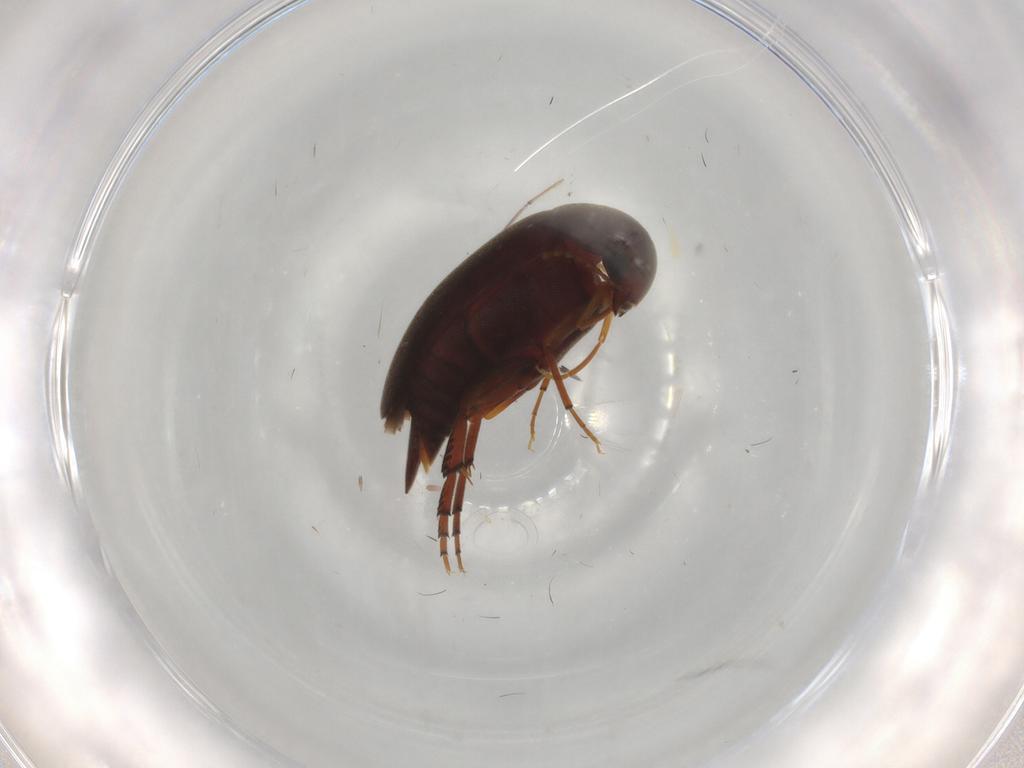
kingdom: Animalia
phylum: Arthropoda
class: Insecta
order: Coleoptera
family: Mordellidae
